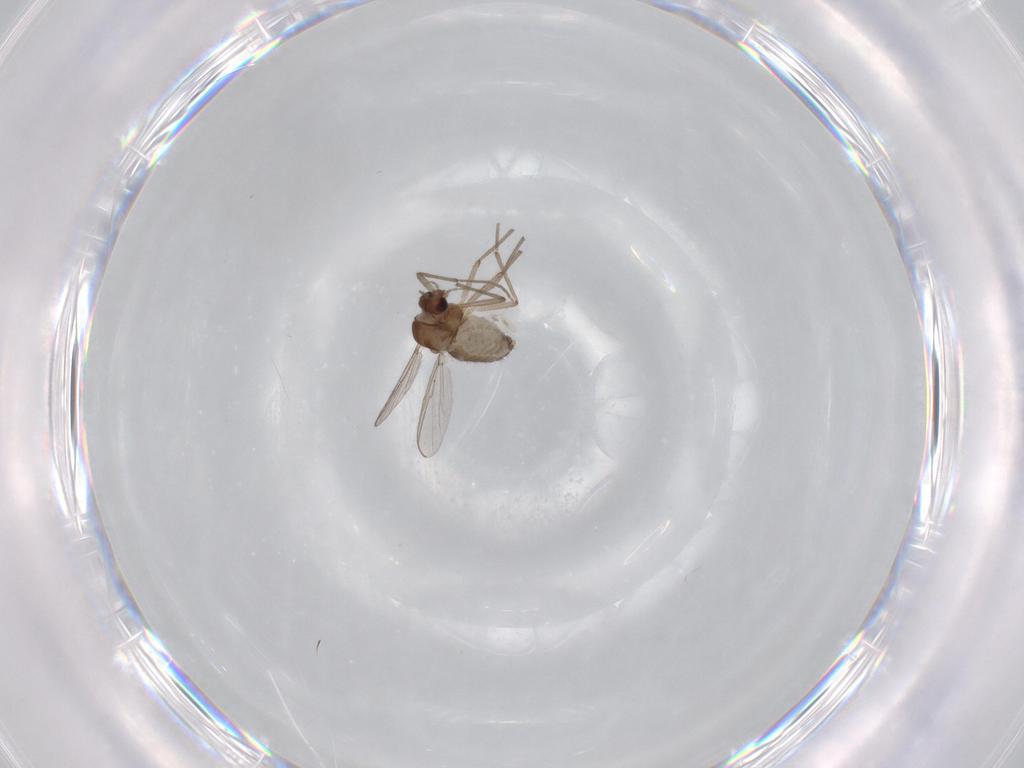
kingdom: Animalia
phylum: Arthropoda
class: Insecta
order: Diptera
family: Chironomidae
